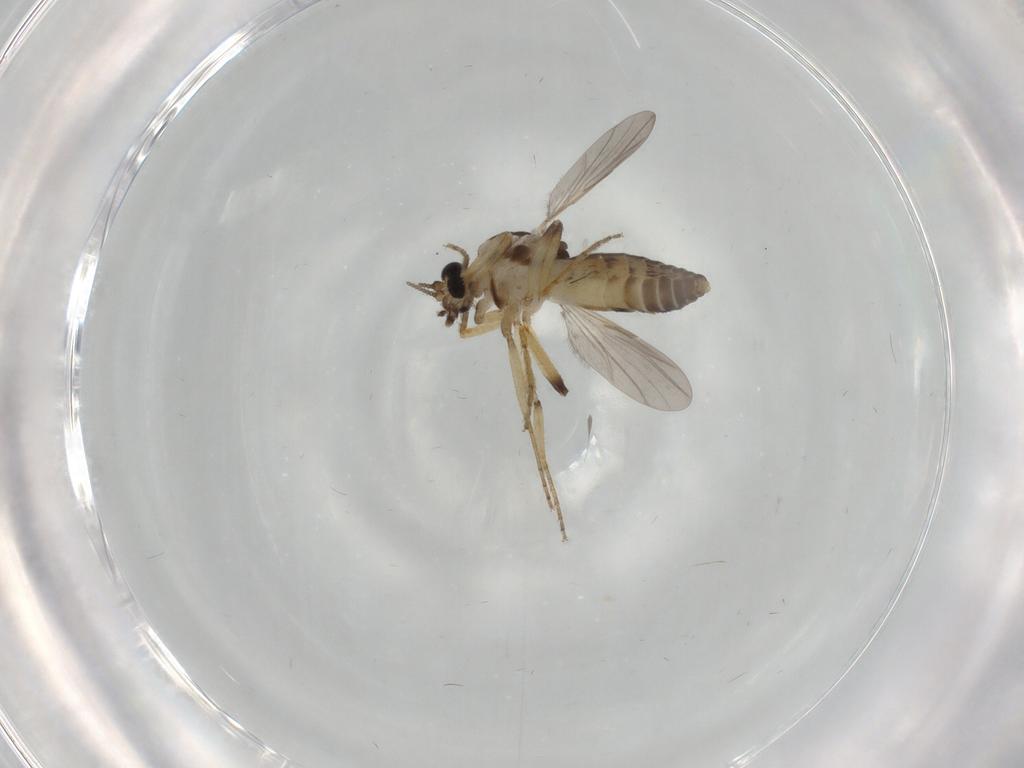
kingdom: Animalia
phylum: Arthropoda
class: Insecta
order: Diptera
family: Ceratopogonidae
